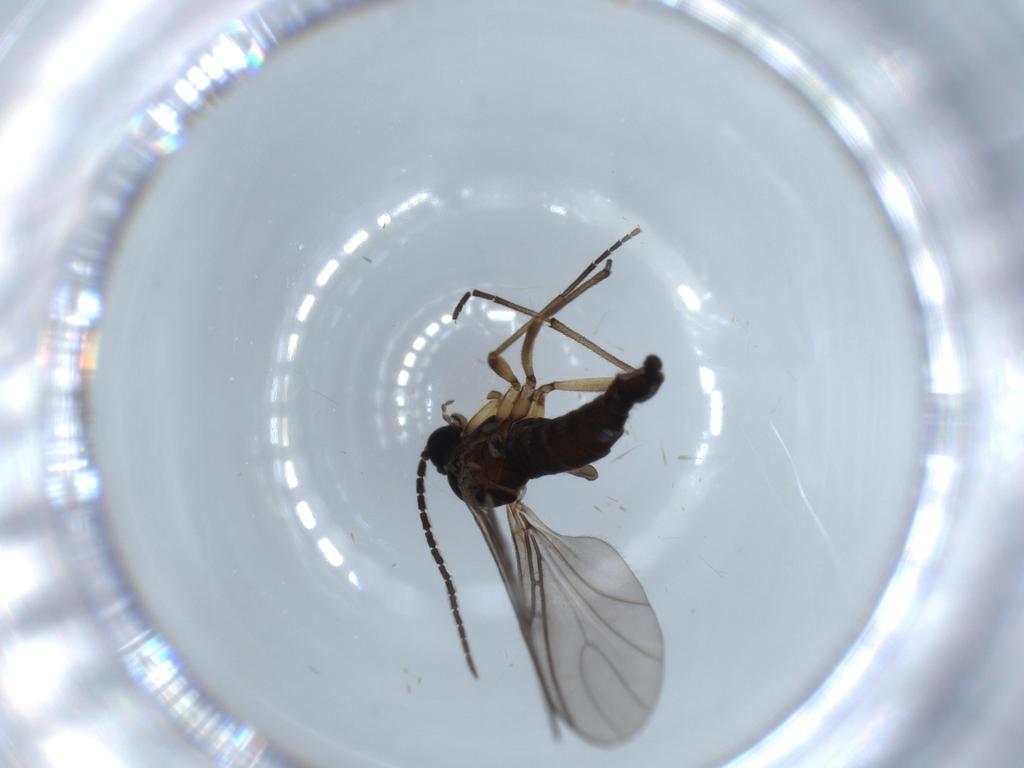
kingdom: Animalia
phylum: Arthropoda
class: Insecta
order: Diptera
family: Sciaridae
